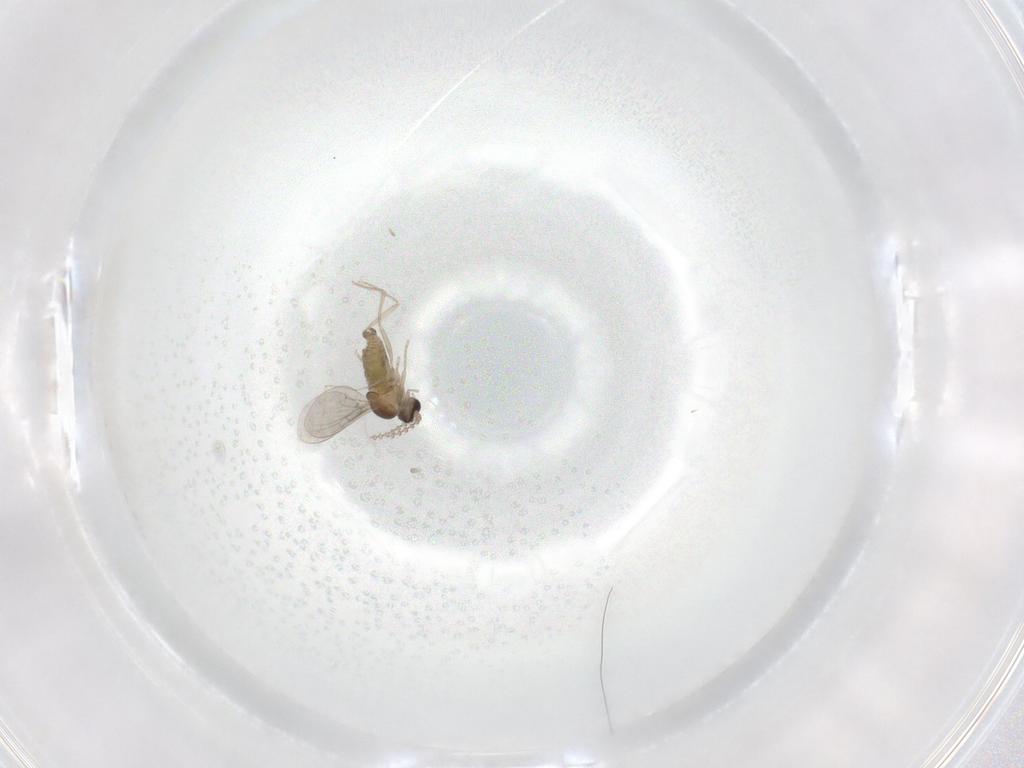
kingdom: Animalia
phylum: Arthropoda
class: Insecta
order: Diptera
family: Cecidomyiidae
